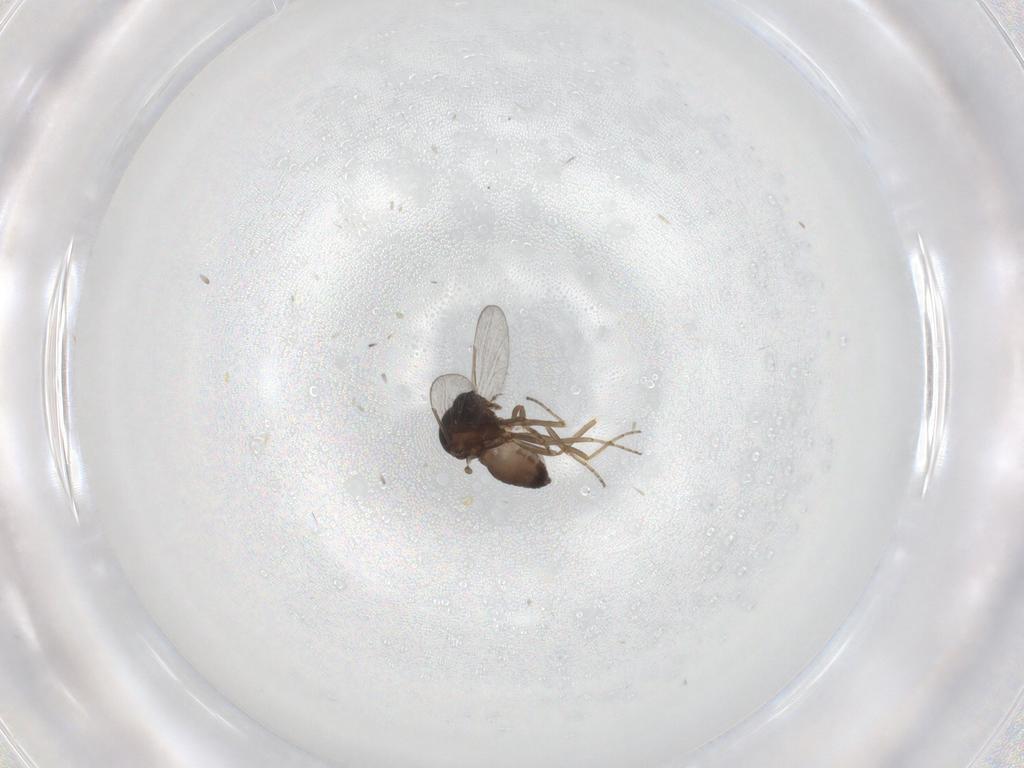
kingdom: Animalia
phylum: Arthropoda
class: Insecta
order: Diptera
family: Ceratopogonidae
